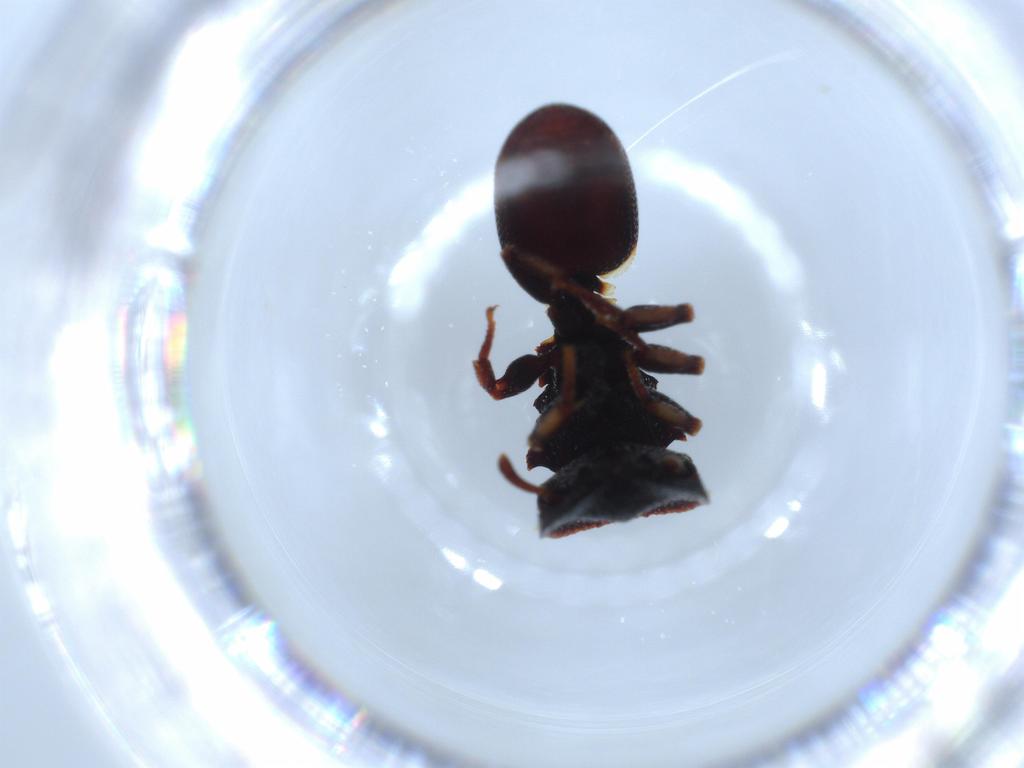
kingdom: Animalia
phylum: Arthropoda
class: Insecta
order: Hymenoptera
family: Formicidae
